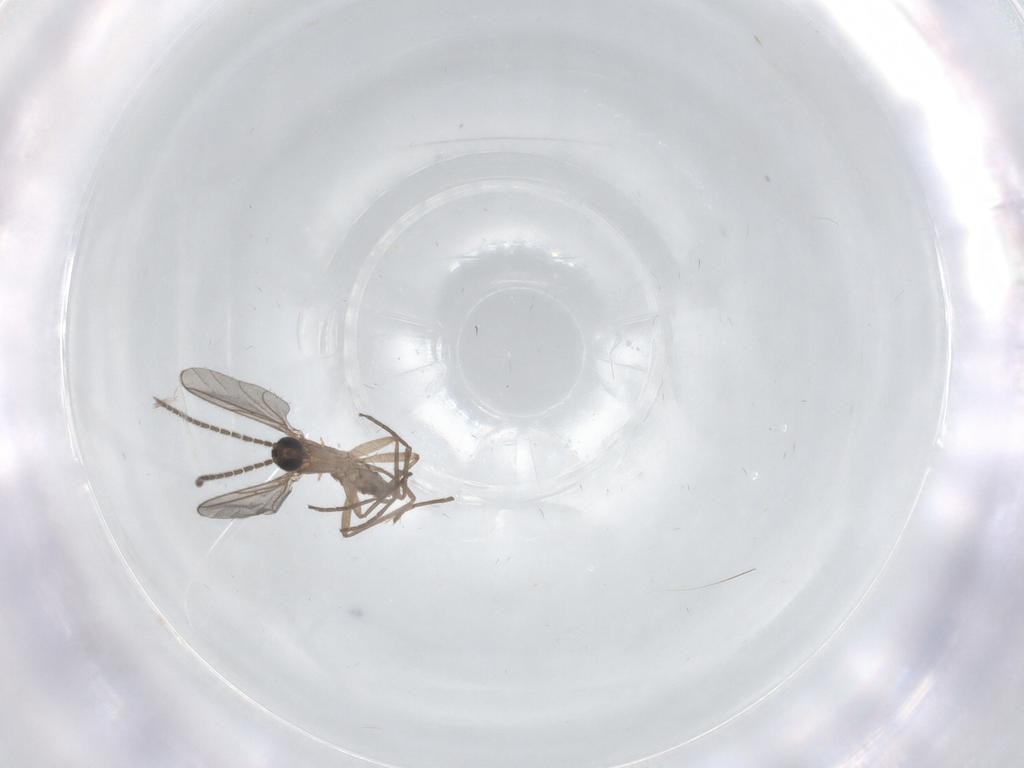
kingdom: Animalia
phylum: Arthropoda
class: Insecta
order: Diptera
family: Sciaridae
